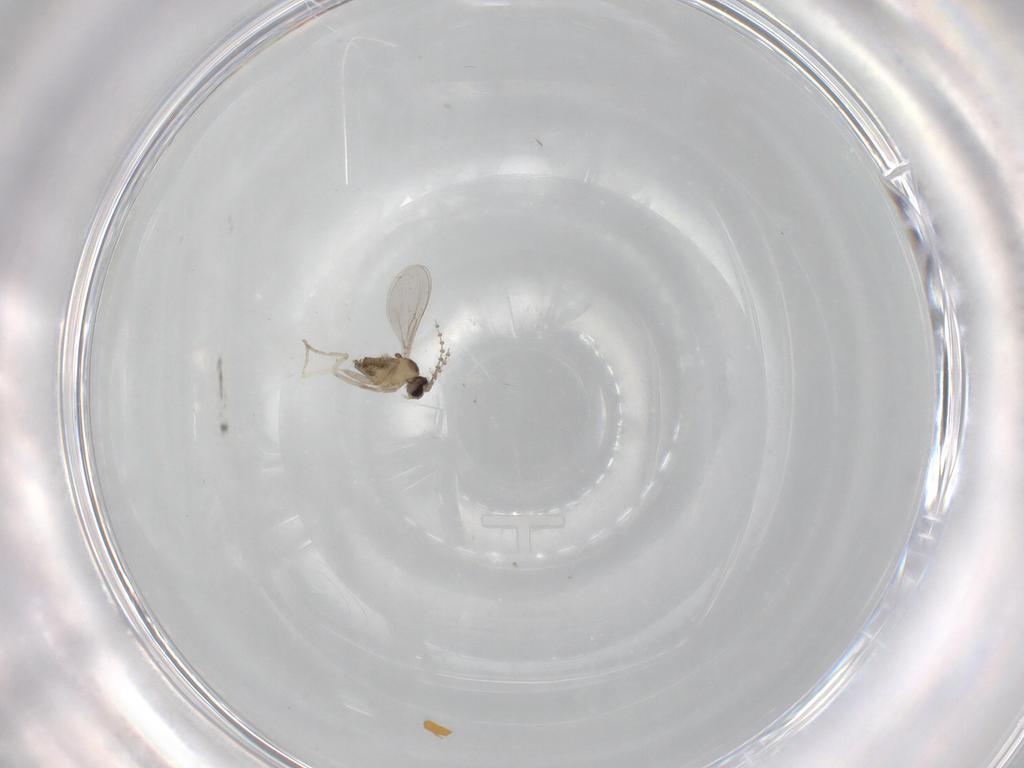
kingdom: Animalia
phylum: Arthropoda
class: Insecta
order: Diptera
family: Cecidomyiidae
